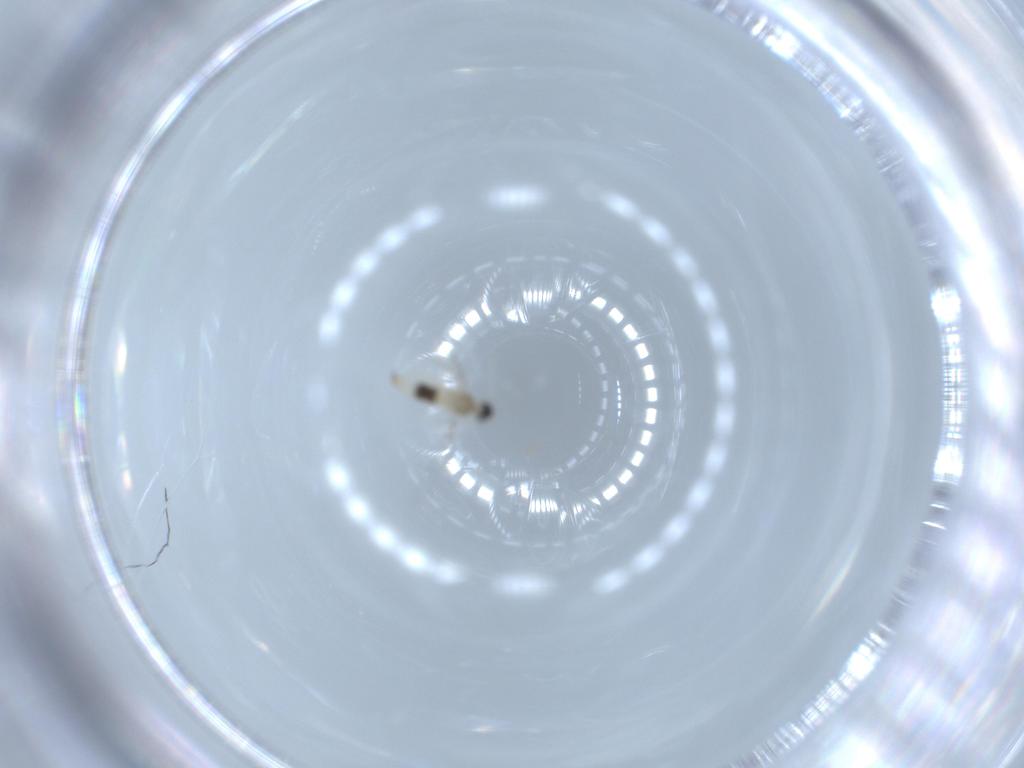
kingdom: Animalia
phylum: Arthropoda
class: Insecta
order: Diptera
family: Cecidomyiidae
